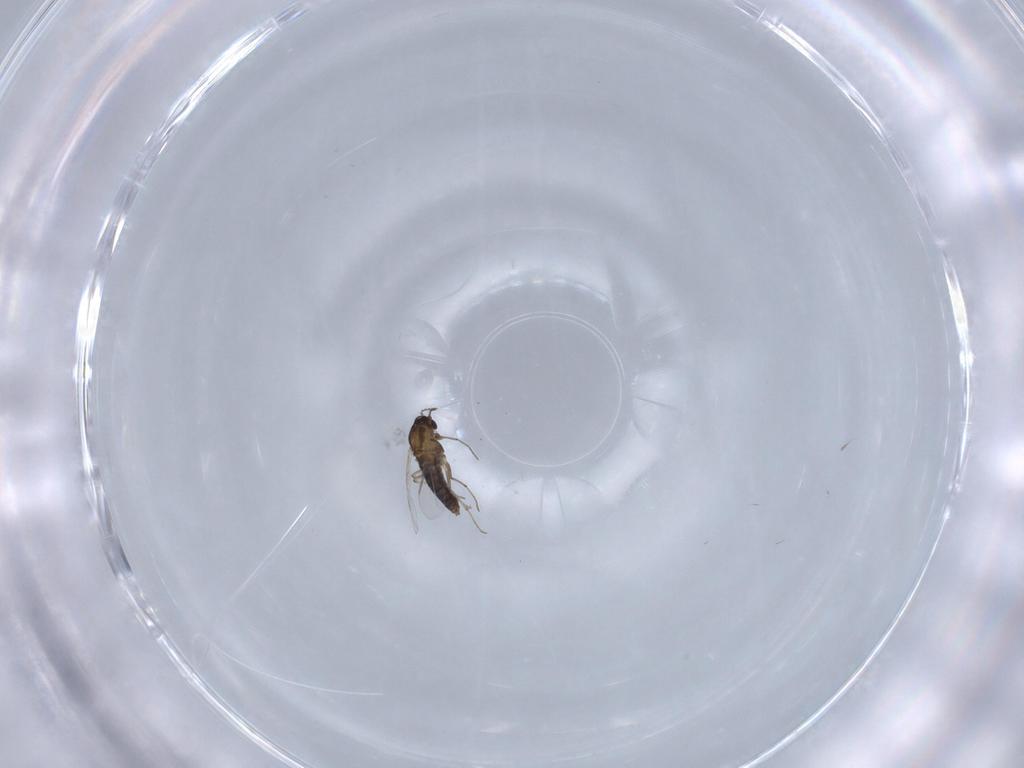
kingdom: Animalia
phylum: Arthropoda
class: Insecta
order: Diptera
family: Chironomidae
